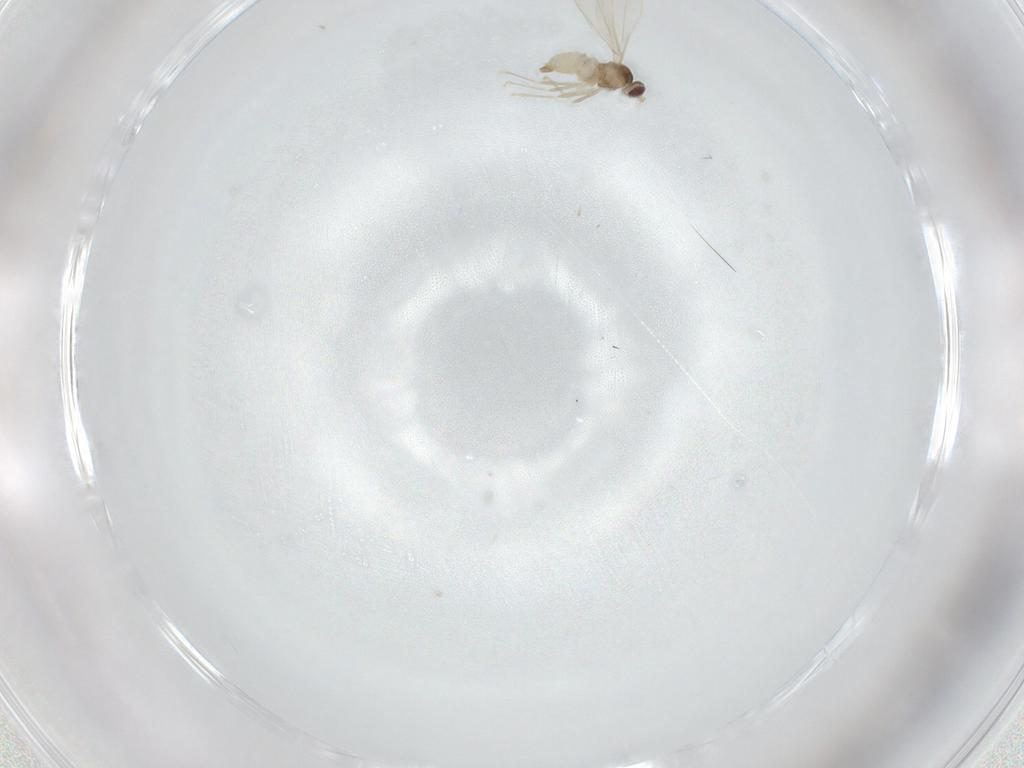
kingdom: Animalia
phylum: Arthropoda
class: Insecta
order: Diptera
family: Cecidomyiidae
